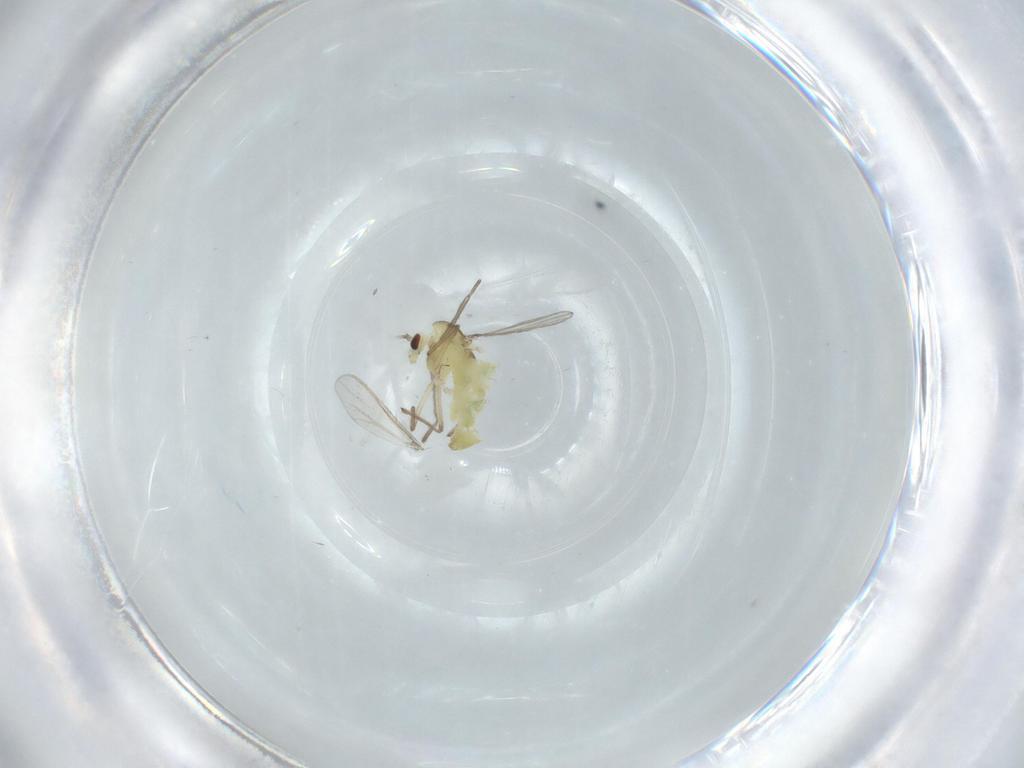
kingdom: Animalia
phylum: Arthropoda
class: Insecta
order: Diptera
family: Chironomidae
